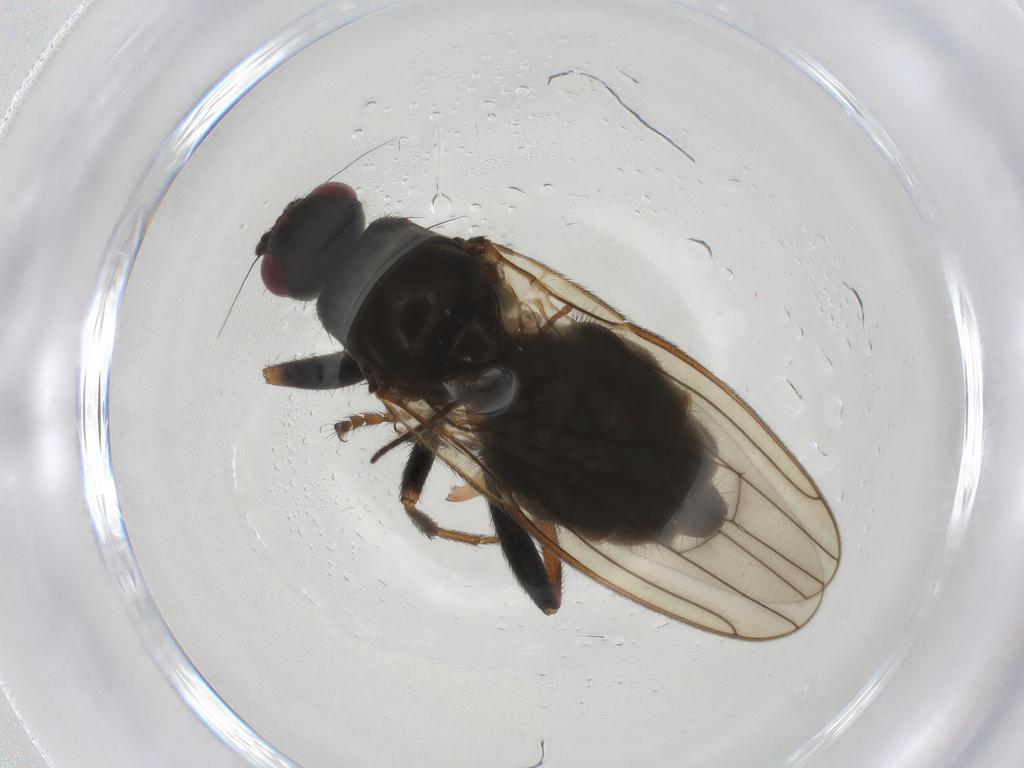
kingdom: Animalia
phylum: Arthropoda
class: Insecta
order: Diptera
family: Sphaeroceridae
